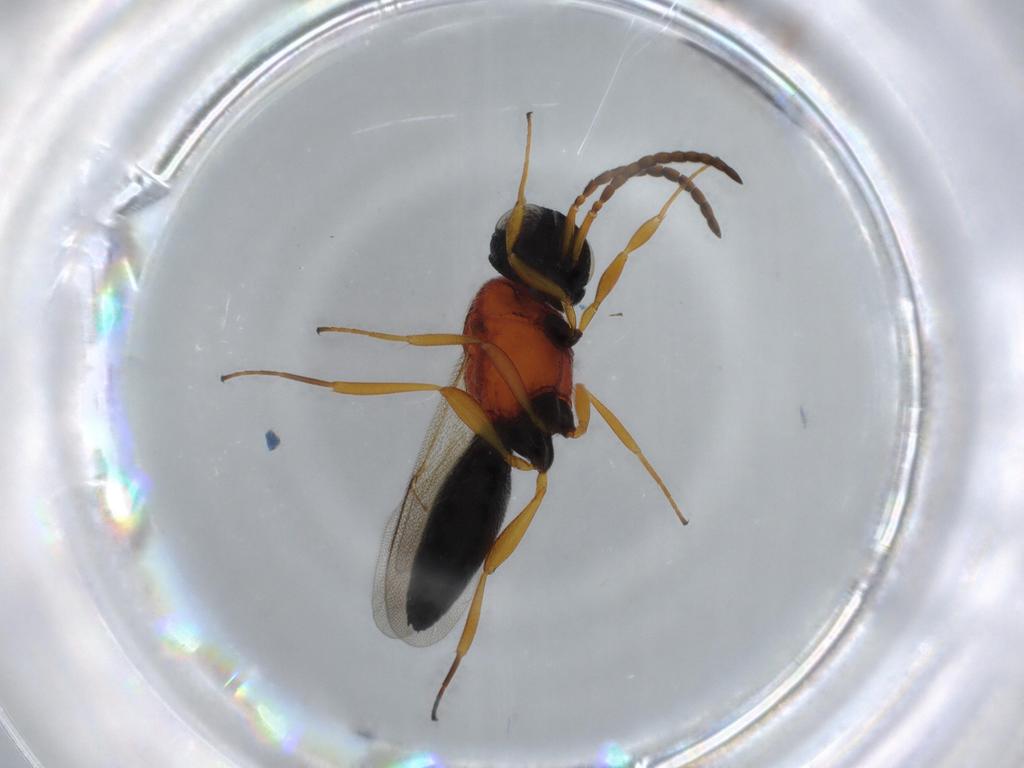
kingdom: Animalia
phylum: Arthropoda
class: Insecta
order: Hymenoptera
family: Scelionidae
